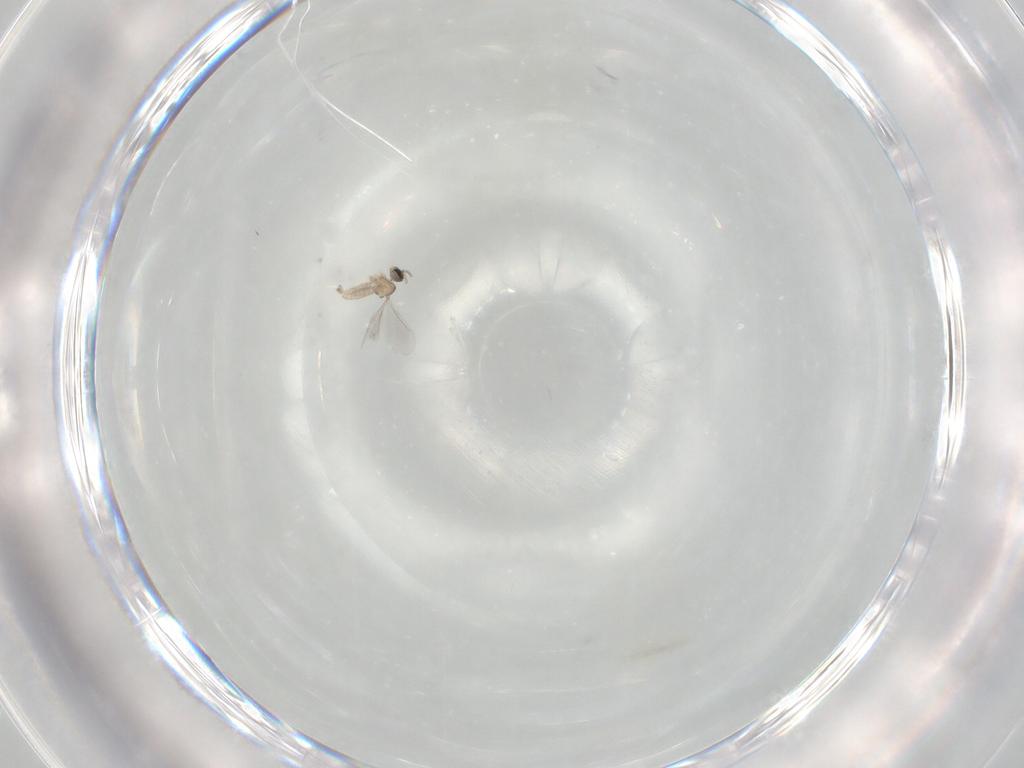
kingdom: Animalia
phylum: Arthropoda
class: Insecta
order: Diptera
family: Cecidomyiidae
